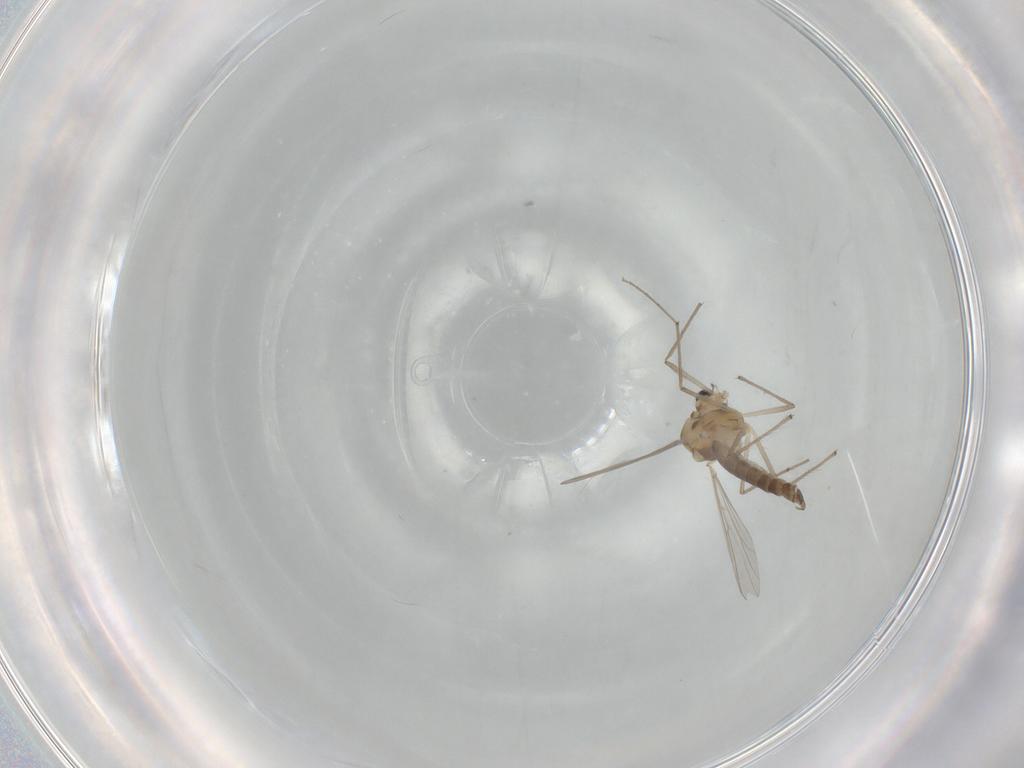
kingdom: Animalia
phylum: Arthropoda
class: Insecta
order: Diptera
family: Chironomidae
